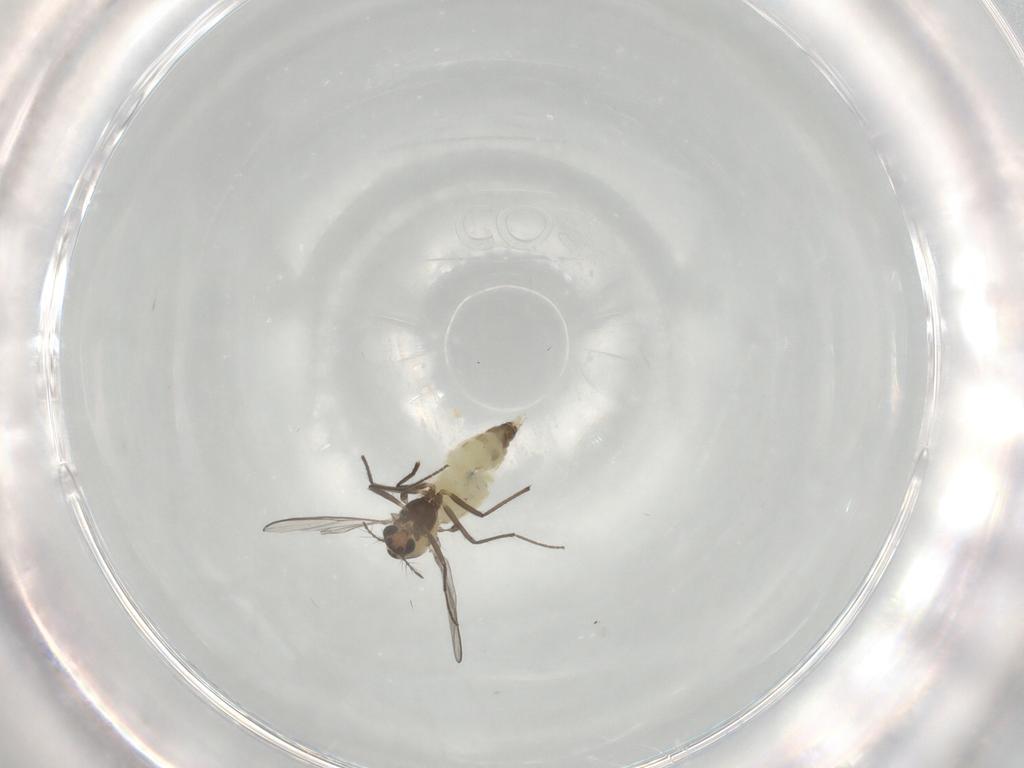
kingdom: Animalia
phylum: Arthropoda
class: Insecta
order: Diptera
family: Chironomidae
